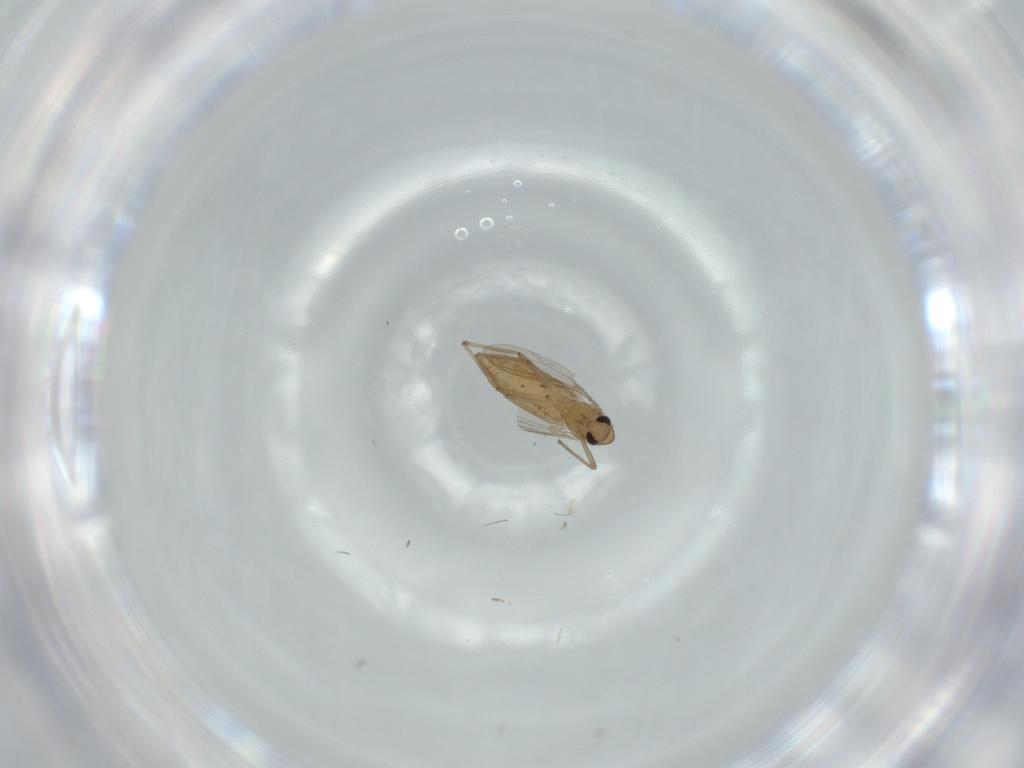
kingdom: Animalia
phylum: Arthropoda
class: Insecta
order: Diptera
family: Chironomidae
